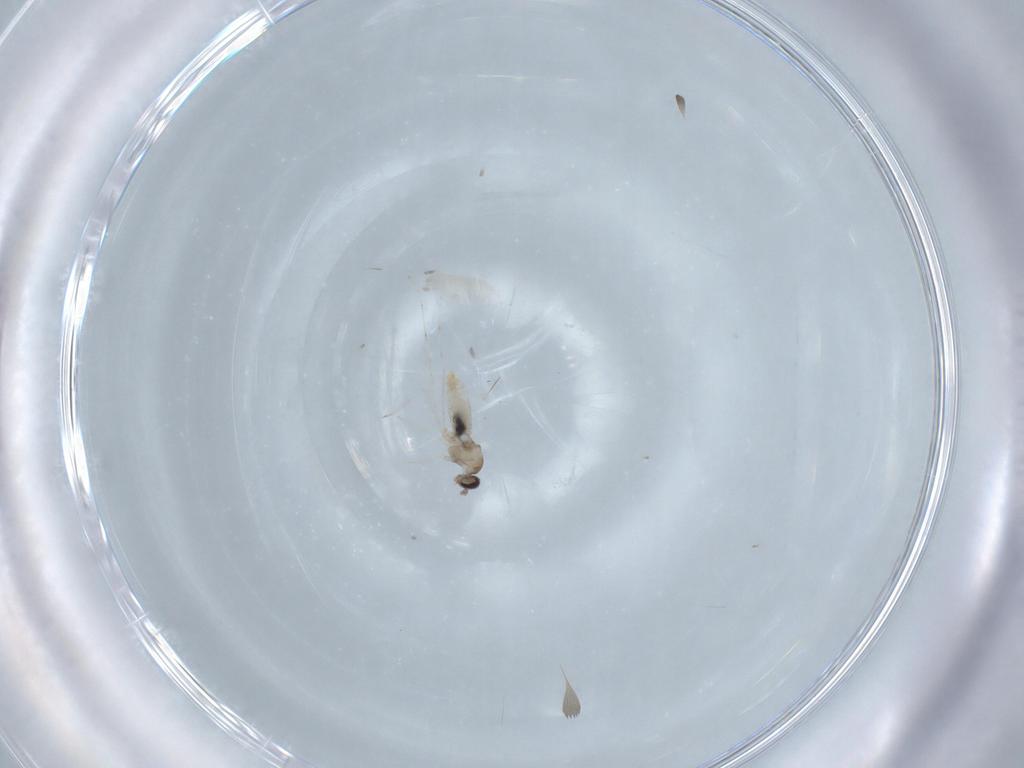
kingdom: Animalia
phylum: Arthropoda
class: Insecta
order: Diptera
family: Cecidomyiidae
